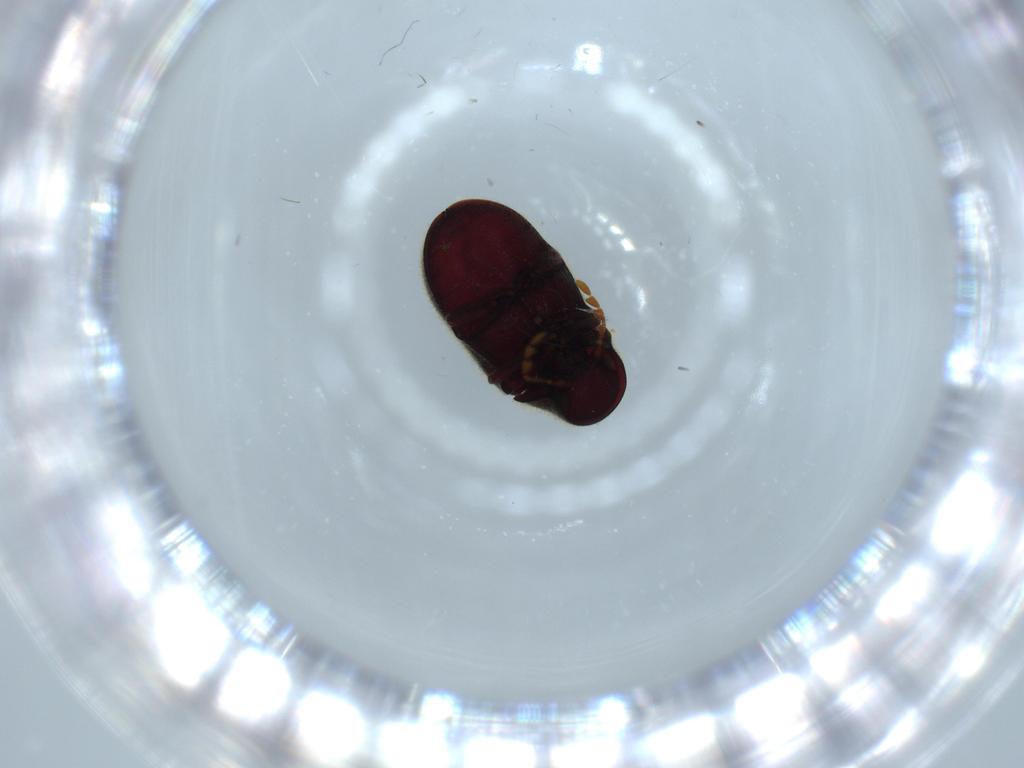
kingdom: Animalia
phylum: Arthropoda
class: Insecta
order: Coleoptera
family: Ptinidae
